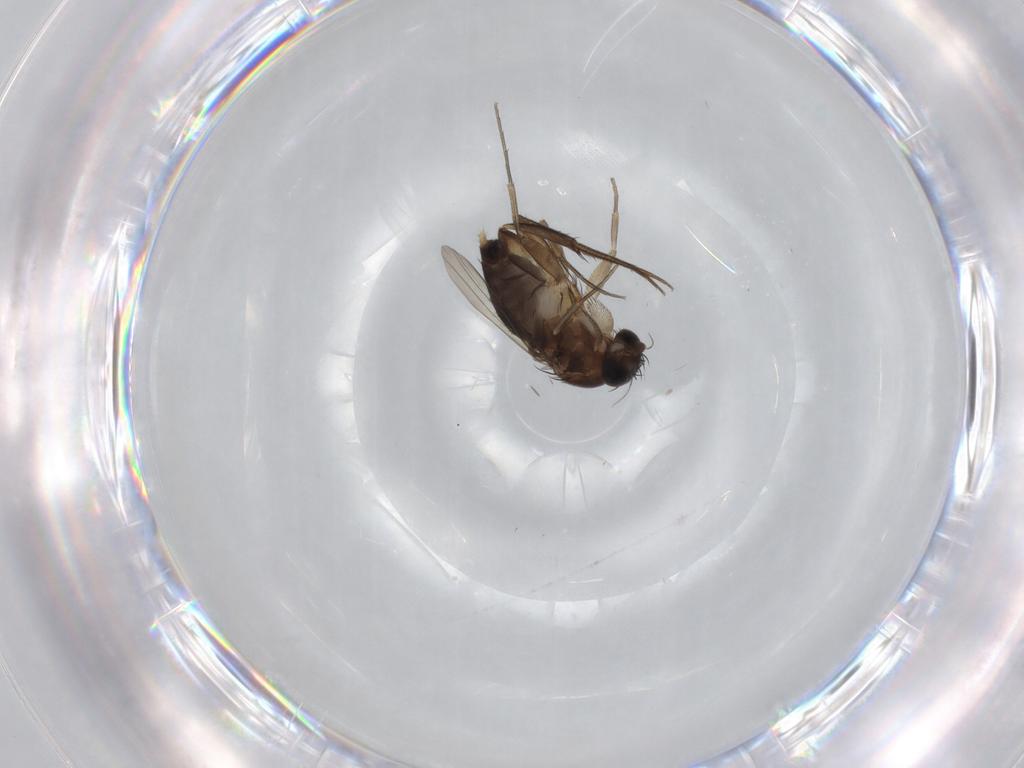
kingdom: Animalia
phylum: Arthropoda
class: Insecta
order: Diptera
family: Phoridae
